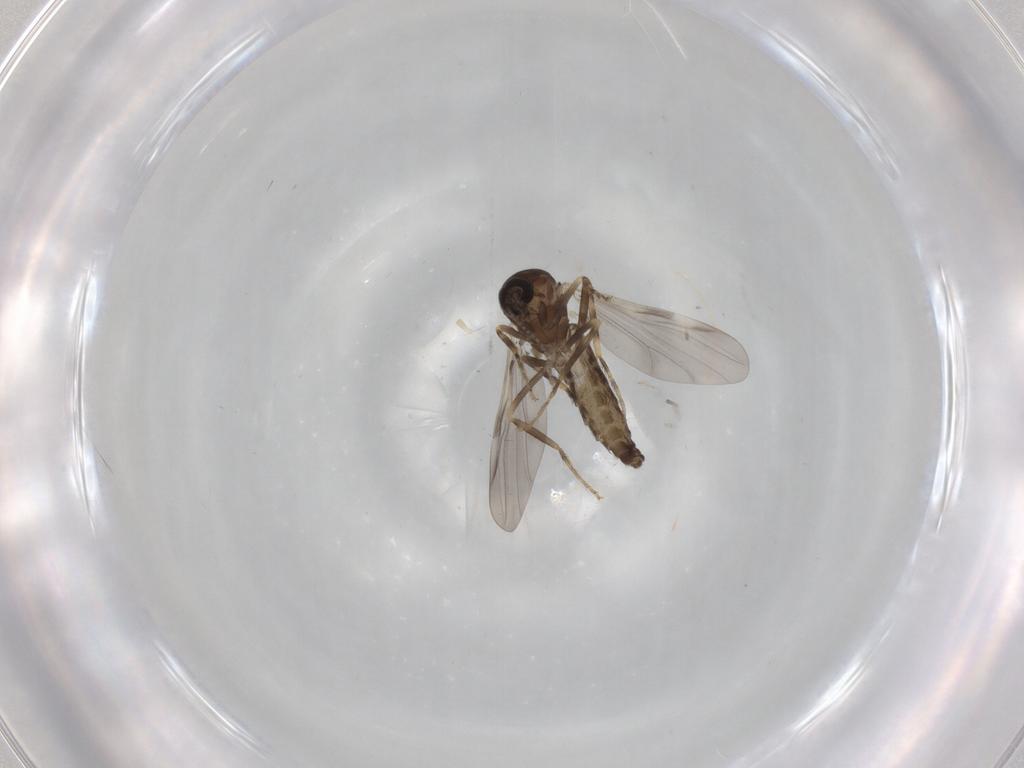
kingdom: Animalia
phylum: Arthropoda
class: Insecta
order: Diptera
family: Ceratopogonidae
